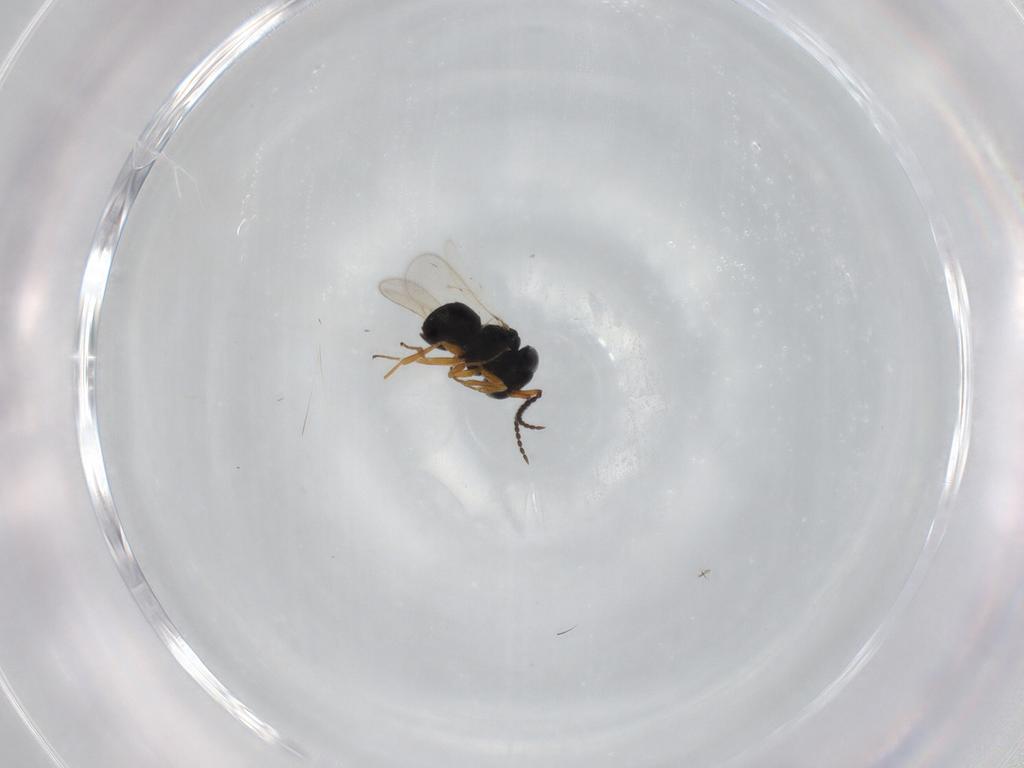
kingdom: Animalia
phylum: Arthropoda
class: Insecta
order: Hymenoptera
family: Scelionidae
